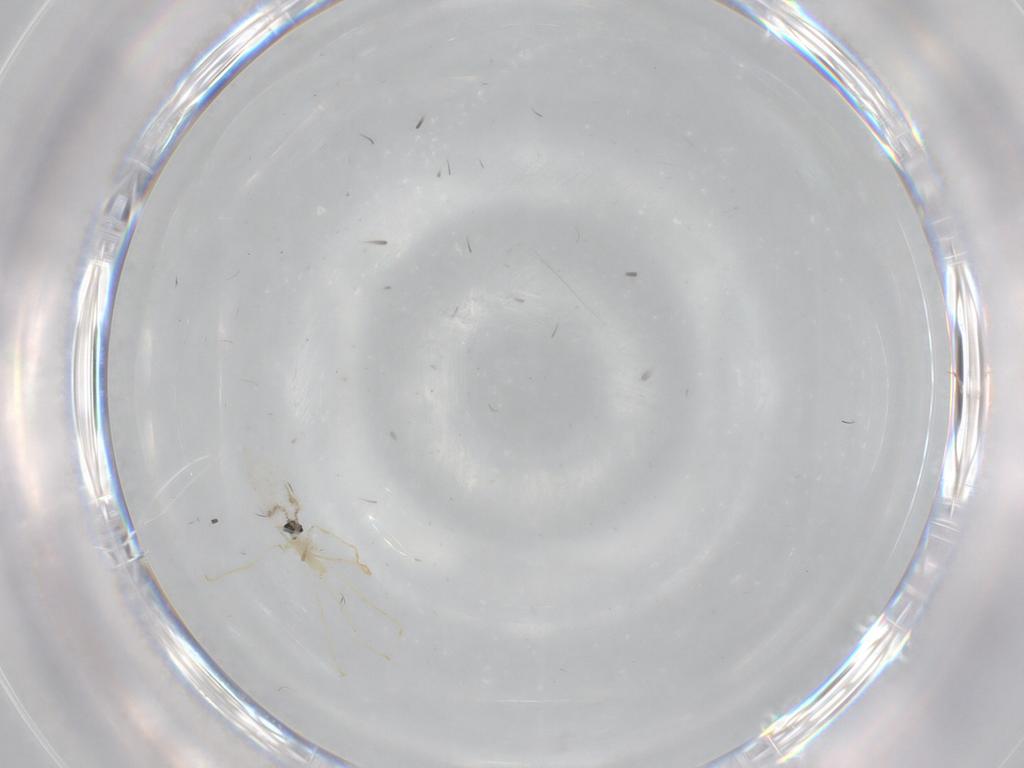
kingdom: Animalia
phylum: Arthropoda
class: Insecta
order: Diptera
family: Cecidomyiidae
